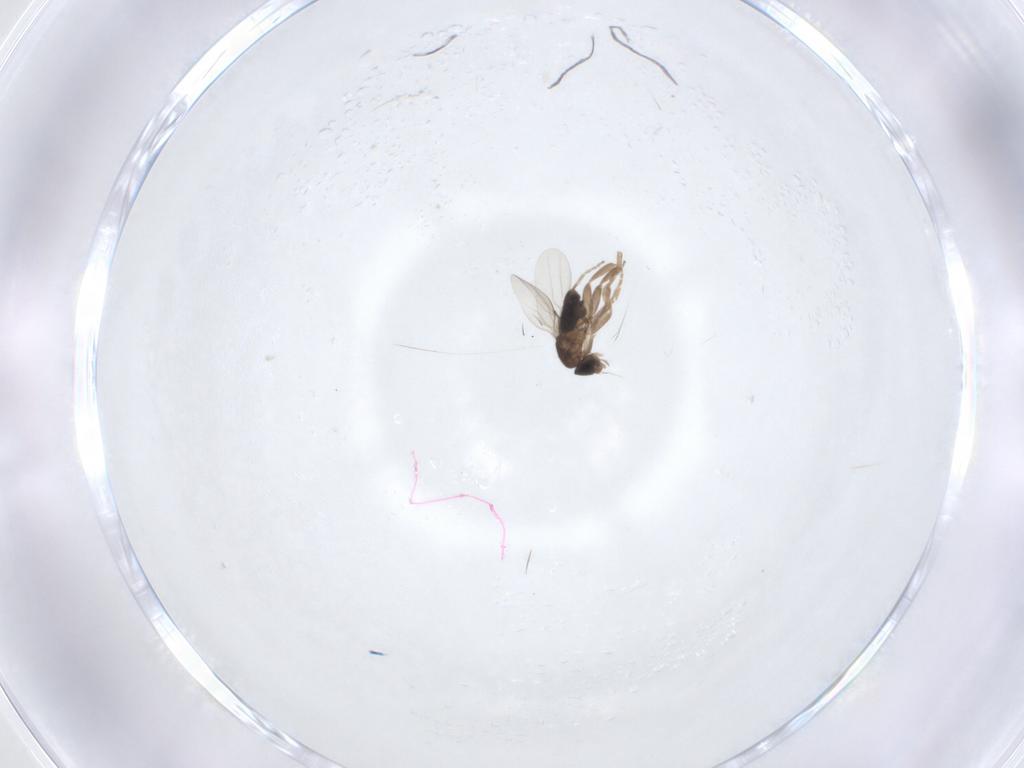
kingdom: Animalia
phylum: Arthropoda
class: Insecta
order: Diptera
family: Phoridae
